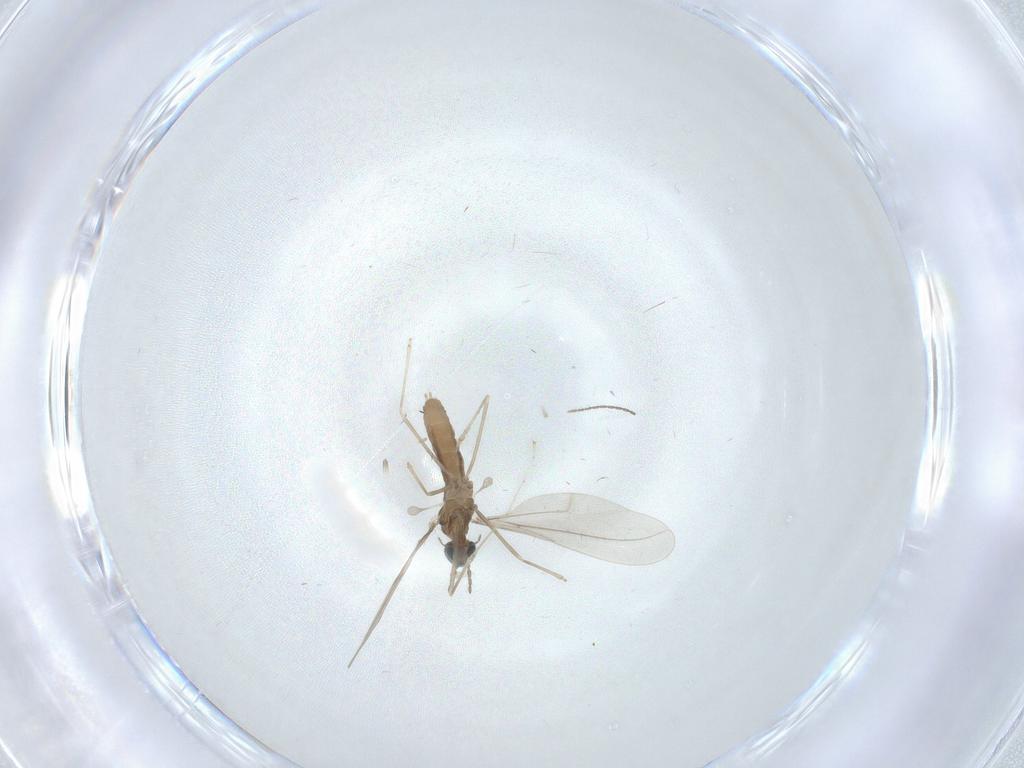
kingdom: Animalia
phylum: Arthropoda
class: Insecta
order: Diptera
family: Cecidomyiidae
